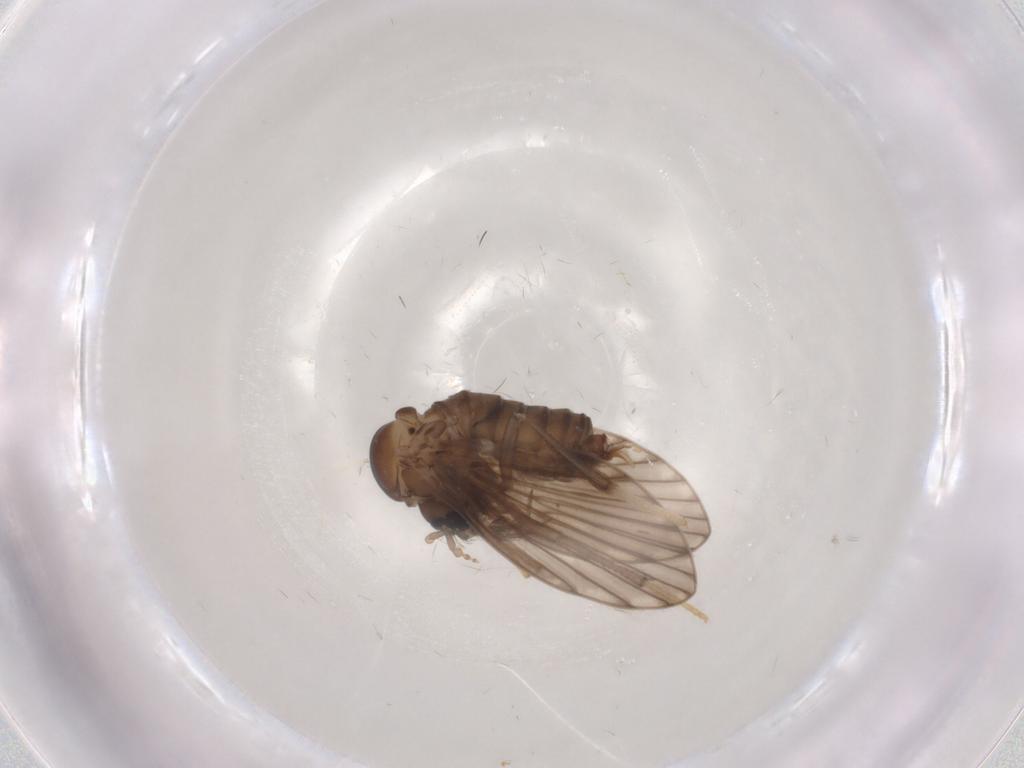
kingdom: Animalia
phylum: Arthropoda
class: Insecta
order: Diptera
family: Psychodidae
